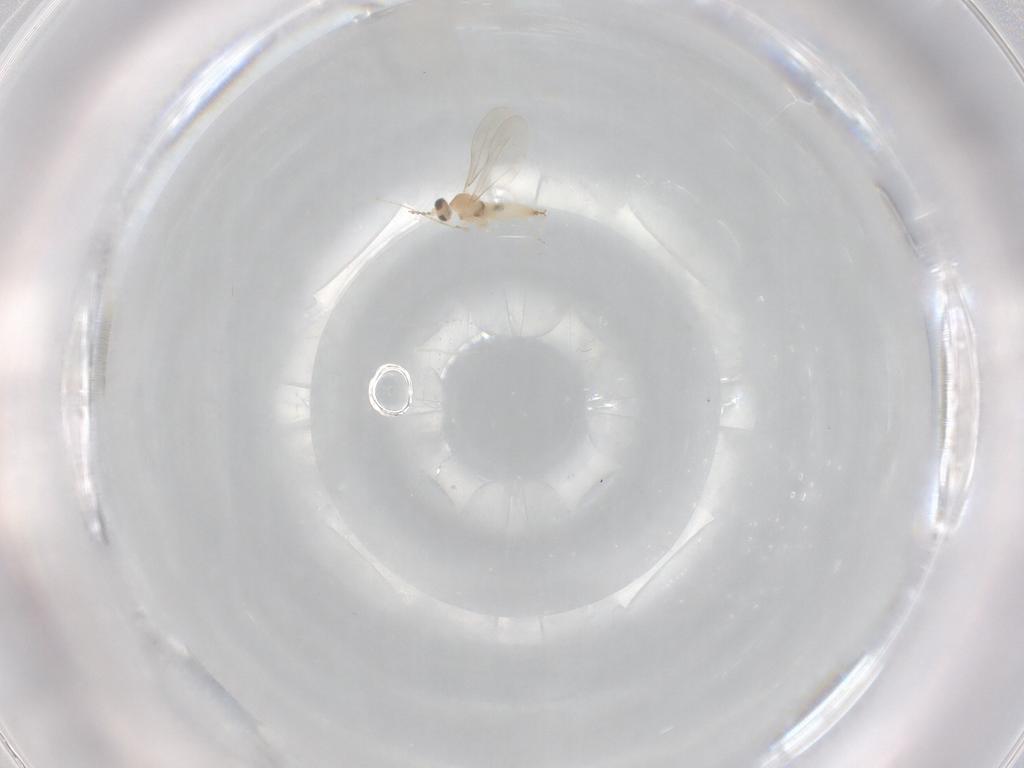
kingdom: Animalia
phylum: Arthropoda
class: Insecta
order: Diptera
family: Cecidomyiidae
